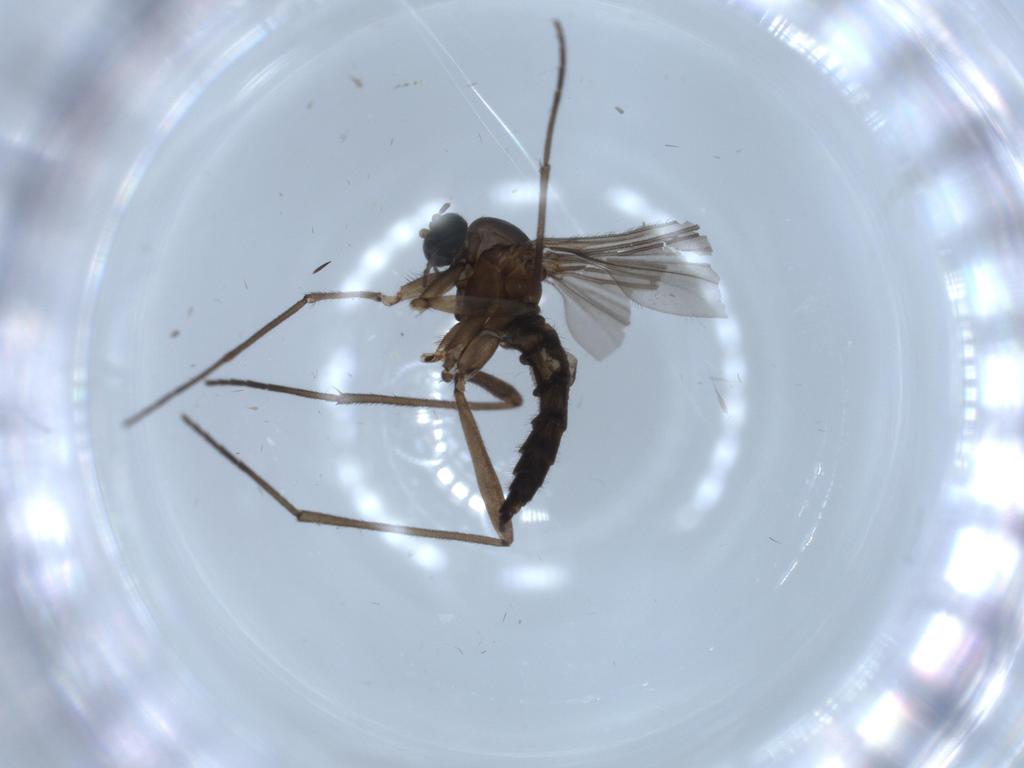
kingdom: Animalia
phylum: Arthropoda
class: Insecta
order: Diptera
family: Sciaridae
